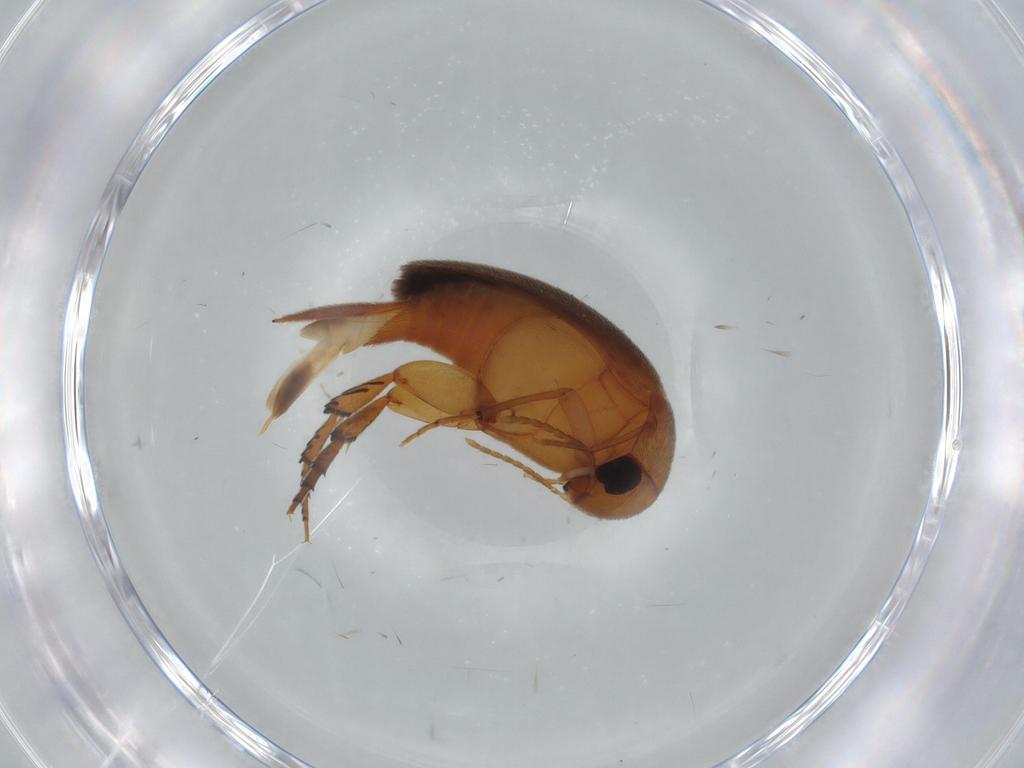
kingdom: Animalia
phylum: Arthropoda
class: Insecta
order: Coleoptera
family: Mordellidae
